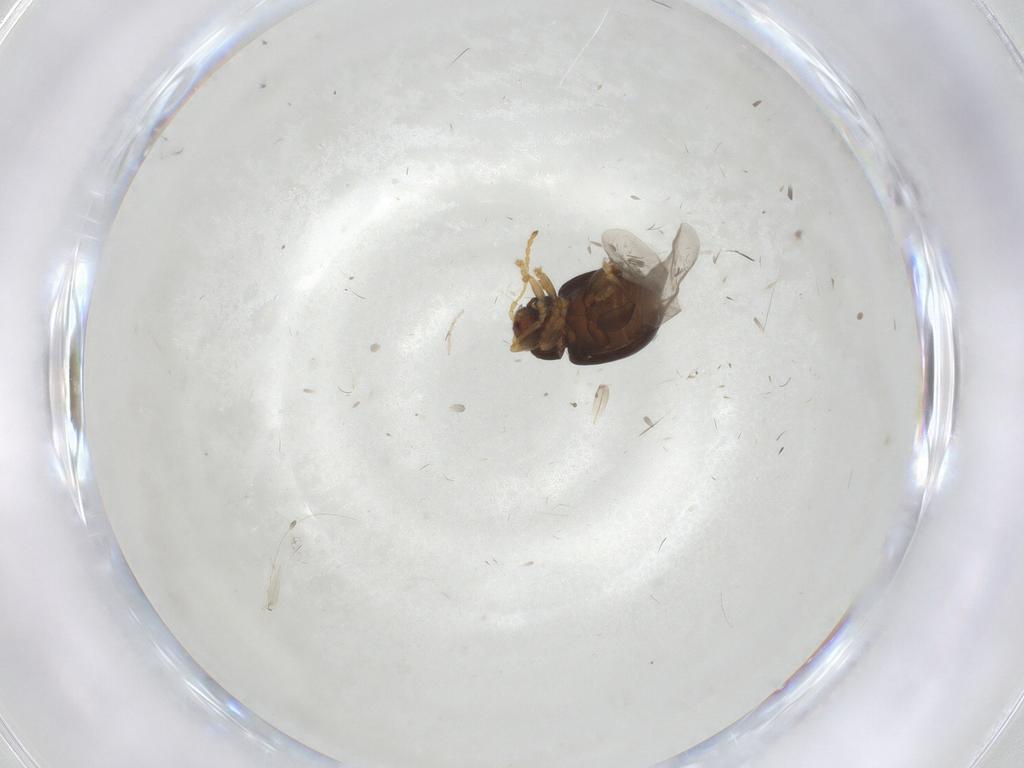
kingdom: Animalia
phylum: Arthropoda
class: Insecta
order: Coleoptera
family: Chrysomelidae
